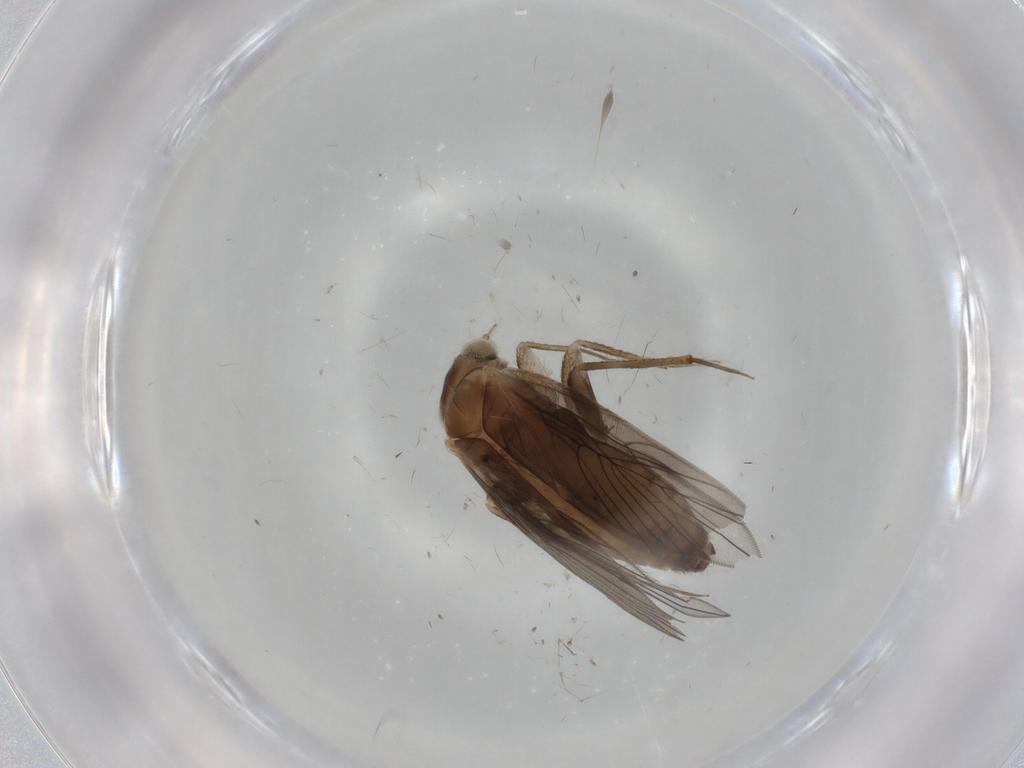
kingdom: Animalia
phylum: Arthropoda
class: Insecta
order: Psocodea
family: Lepidopsocidae
